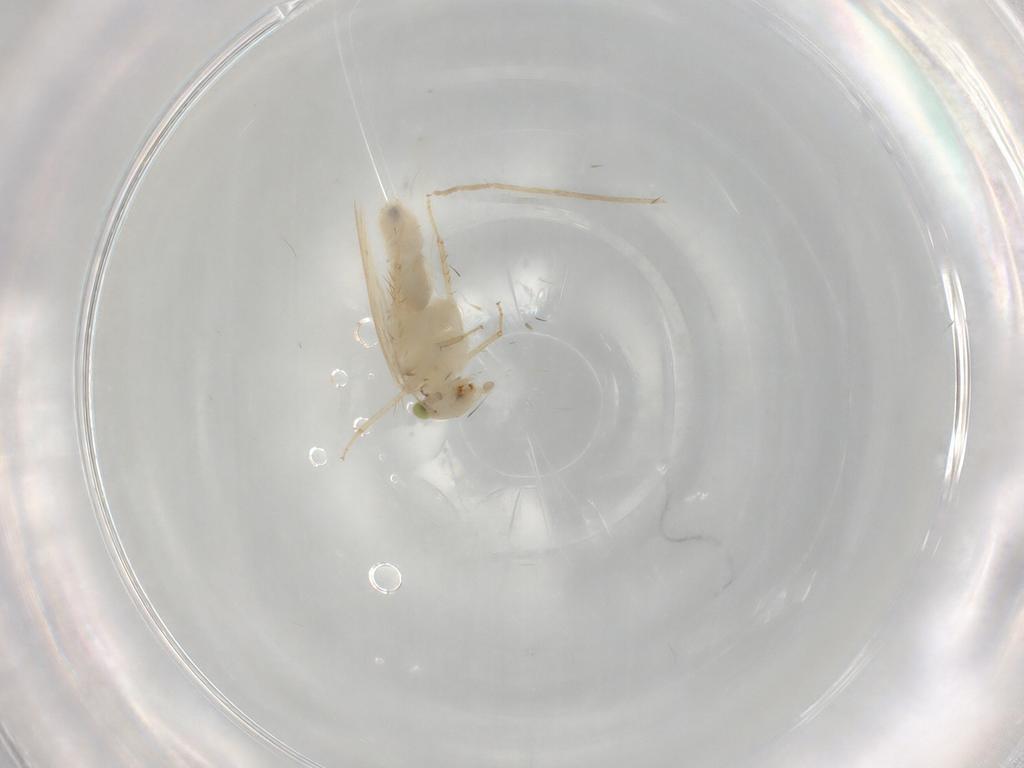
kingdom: Animalia
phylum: Arthropoda
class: Insecta
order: Psocodea
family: Lepidopsocidae
